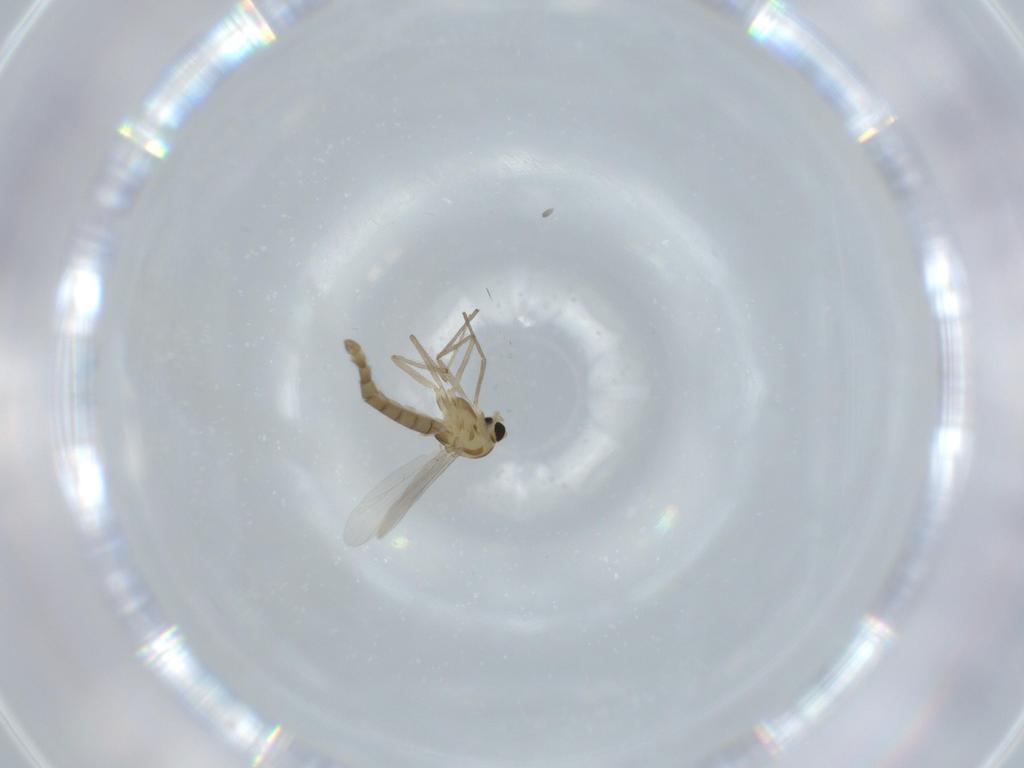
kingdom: Animalia
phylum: Arthropoda
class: Insecta
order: Diptera
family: Chironomidae
